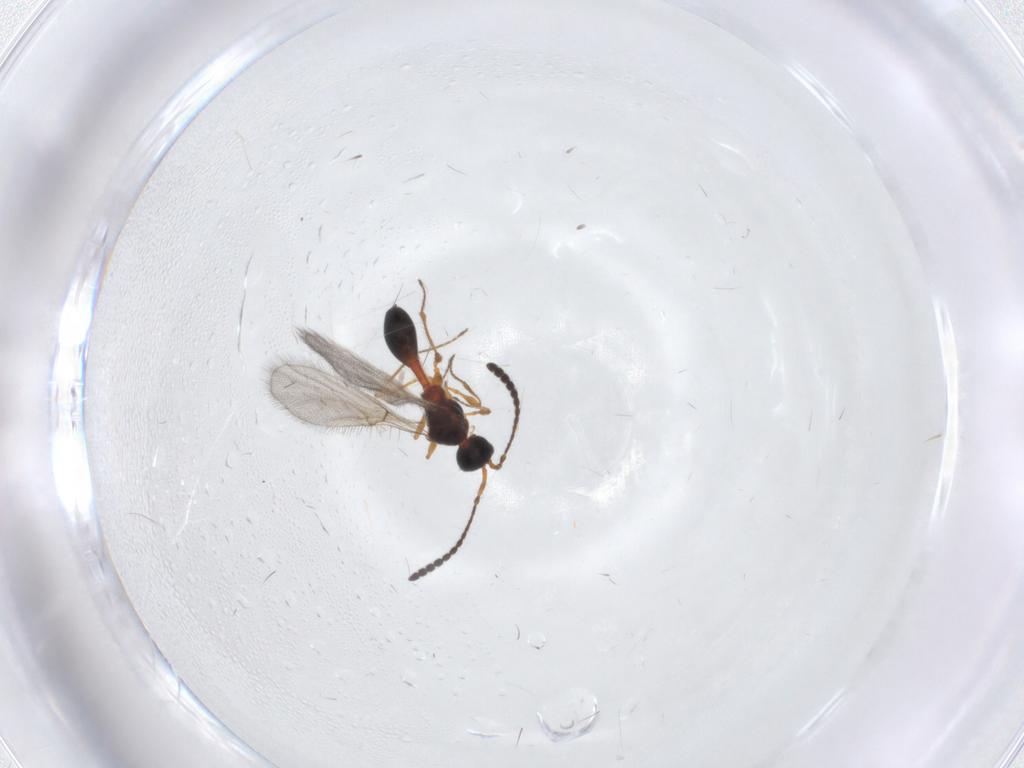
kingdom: Animalia
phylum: Arthropoda
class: Insecta
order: Hymenoptera
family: Diapriidae
